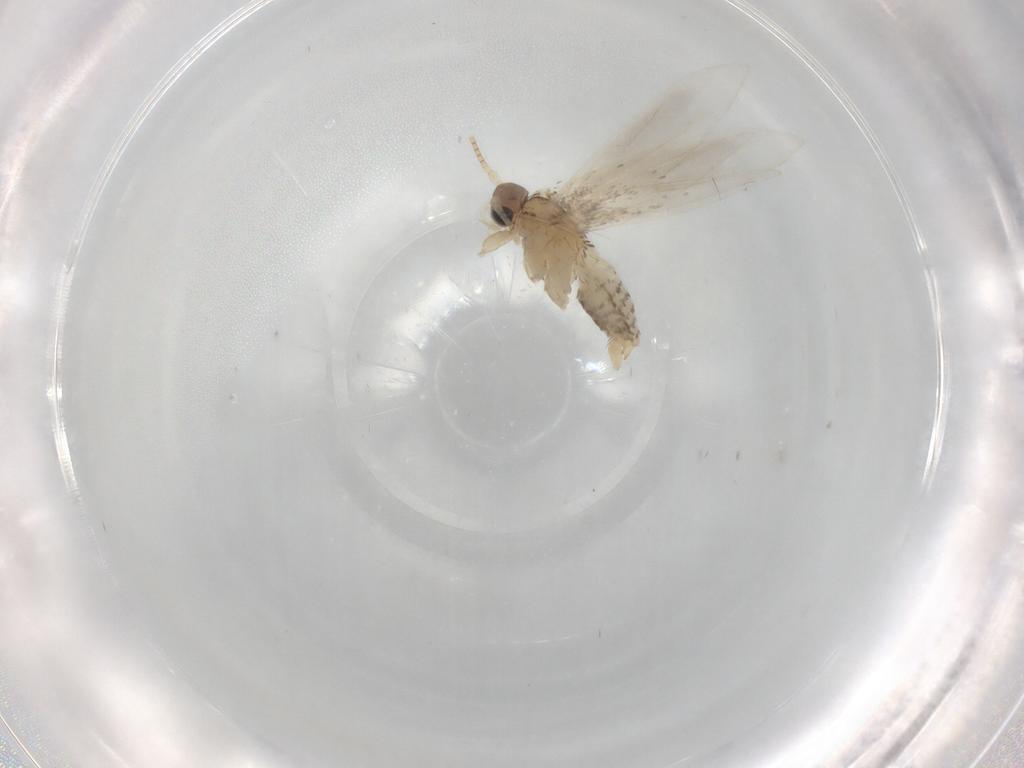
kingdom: Animalia
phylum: Arthropoda
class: Insecta
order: Lepidoptera
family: Tineidae
